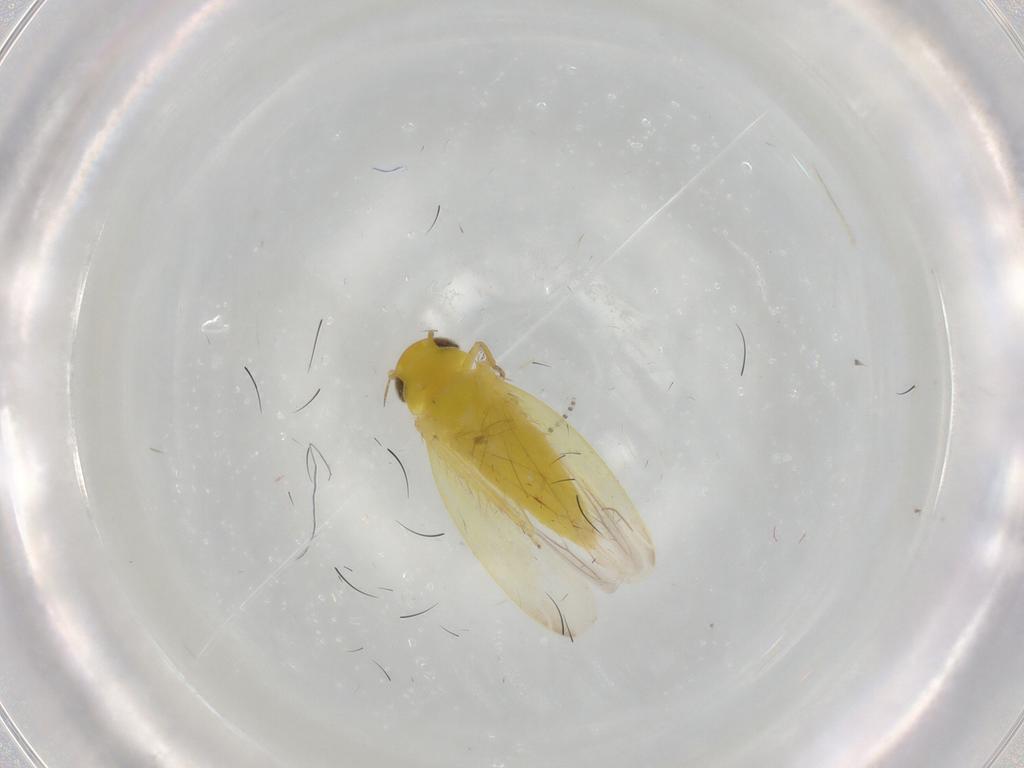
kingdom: Animalia
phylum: Arthropoda
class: Insecta
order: Hemiptera
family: Cicadellidae
